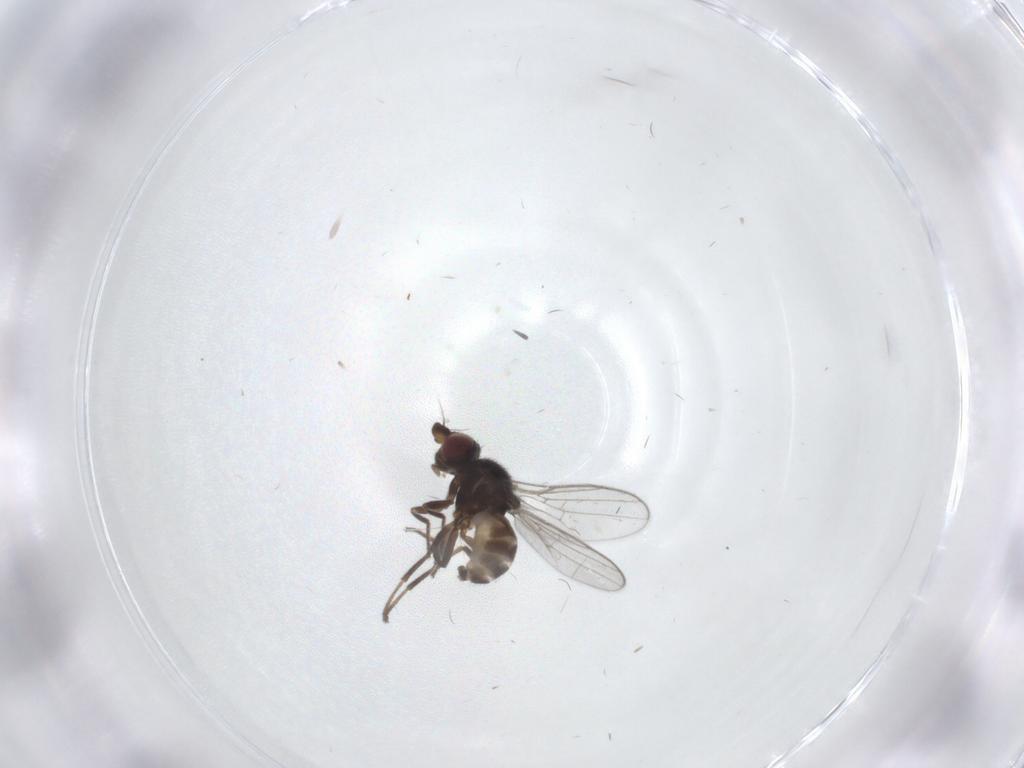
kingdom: Animalia
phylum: Arthropoda
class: Insecta
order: Diptera
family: Chloropidae
